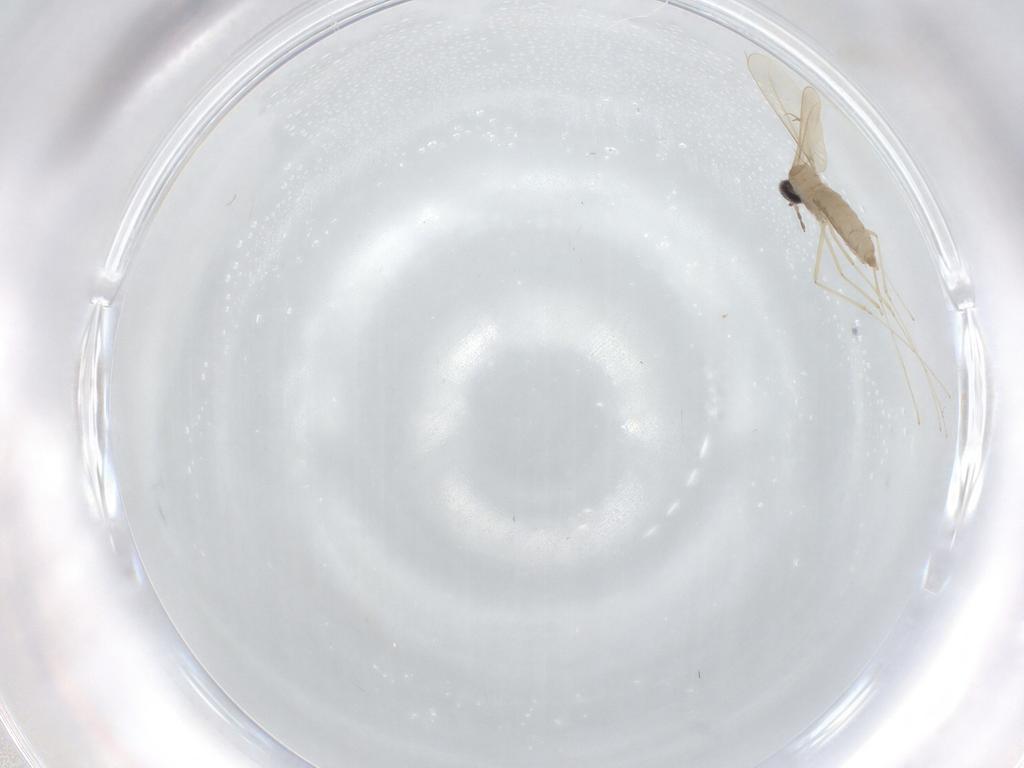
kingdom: Animalia
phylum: Arthropoda
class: Insecta
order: Diptera
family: Cecidomyiidae
